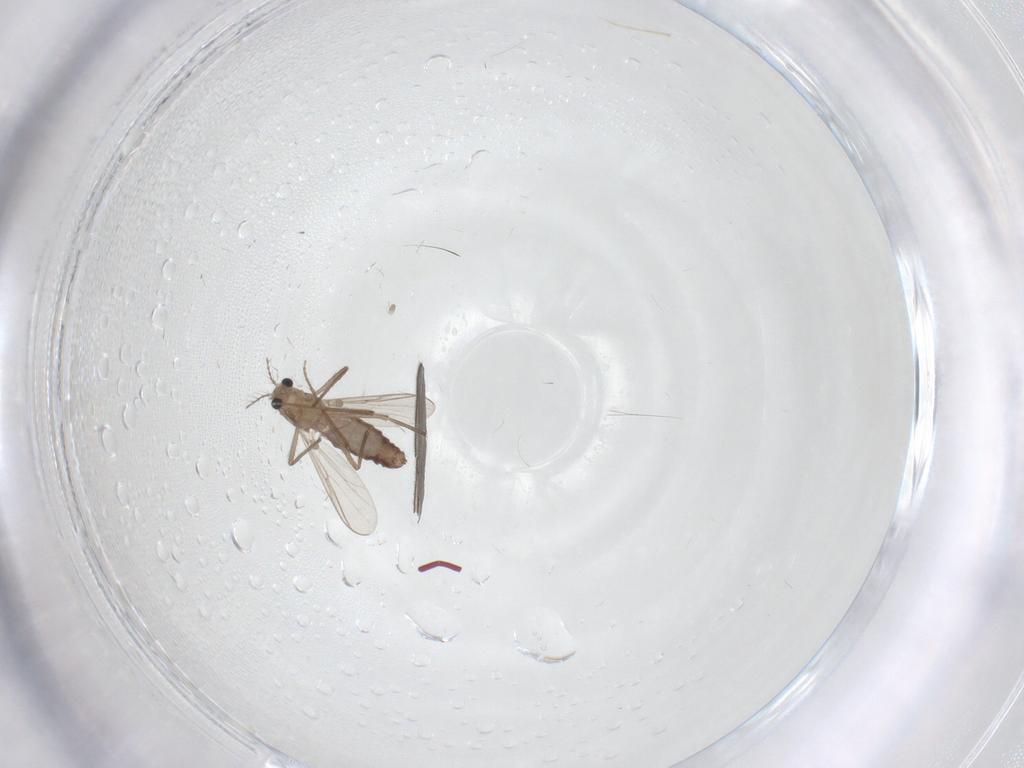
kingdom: Animalia
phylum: Arthropoda
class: Insecta
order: Diptera
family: Chironomidae
